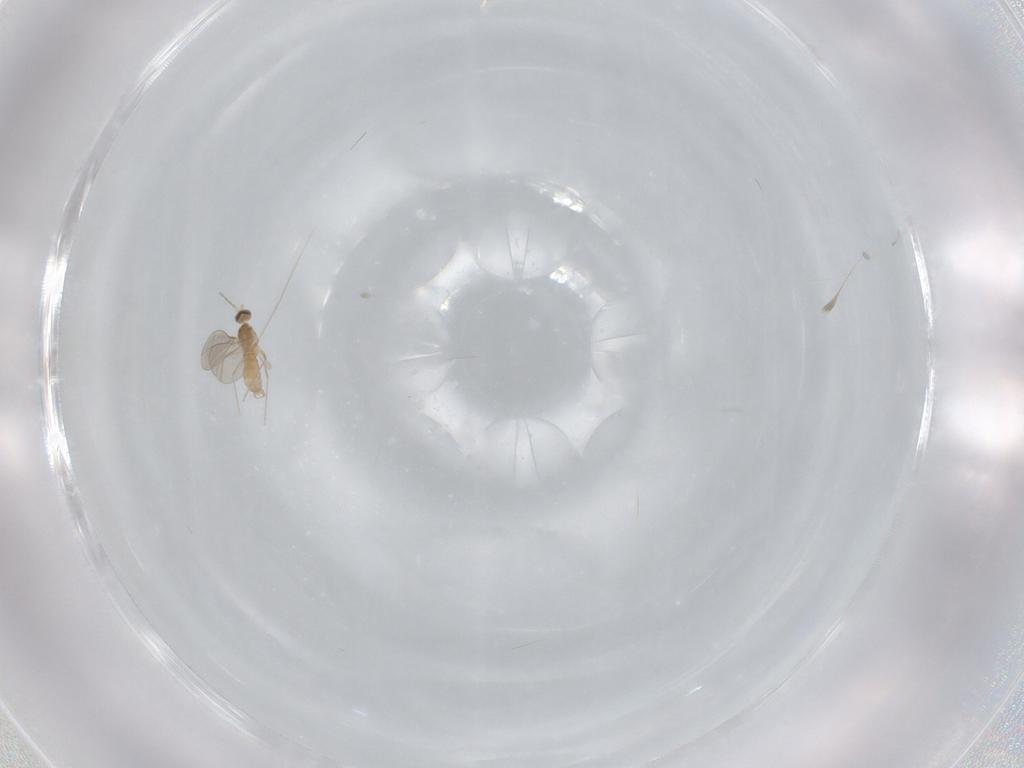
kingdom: Animalia
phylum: Arthropoda
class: Insecta
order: Diptera
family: Cecidomyiidae
